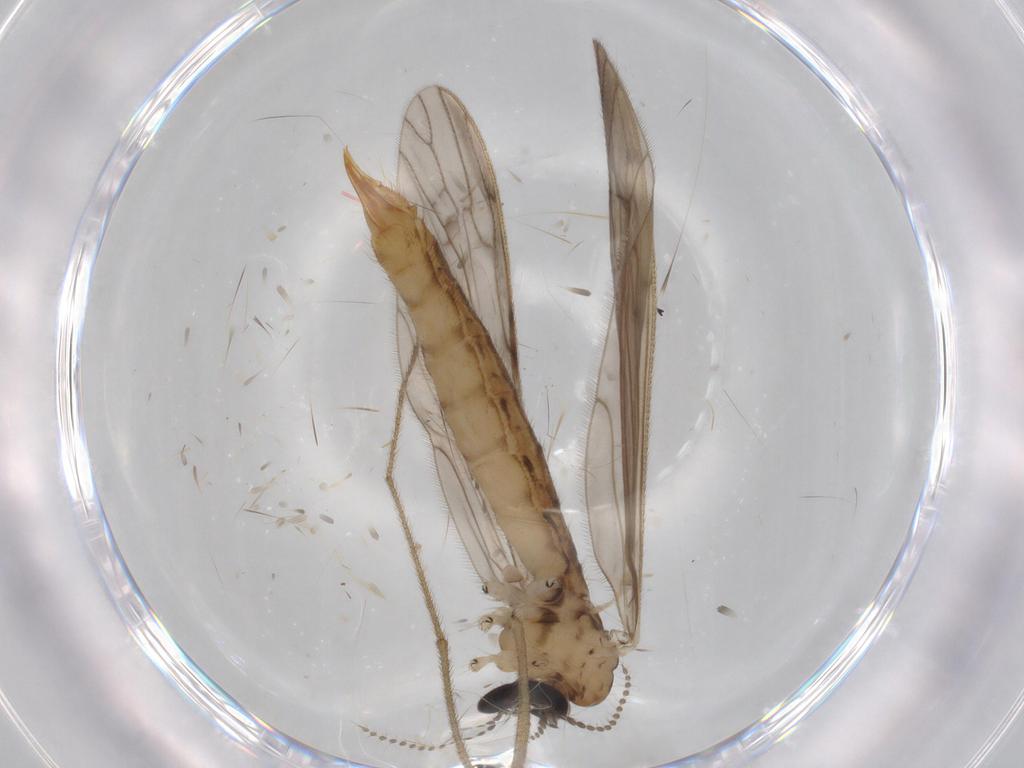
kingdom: Animalia
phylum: Arthropoda
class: Insecta
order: Diptera
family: Cecidomyiidae
